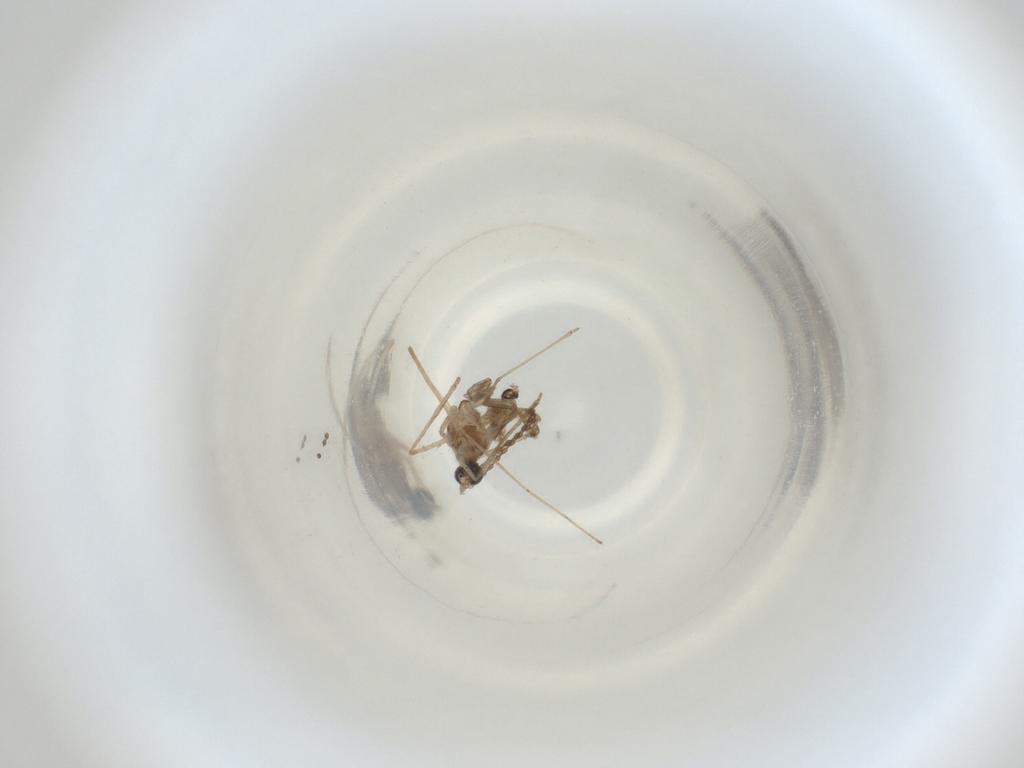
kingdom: Animalia
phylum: Arthropoda
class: Insecta
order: Diptera
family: Cecidomyiidae
